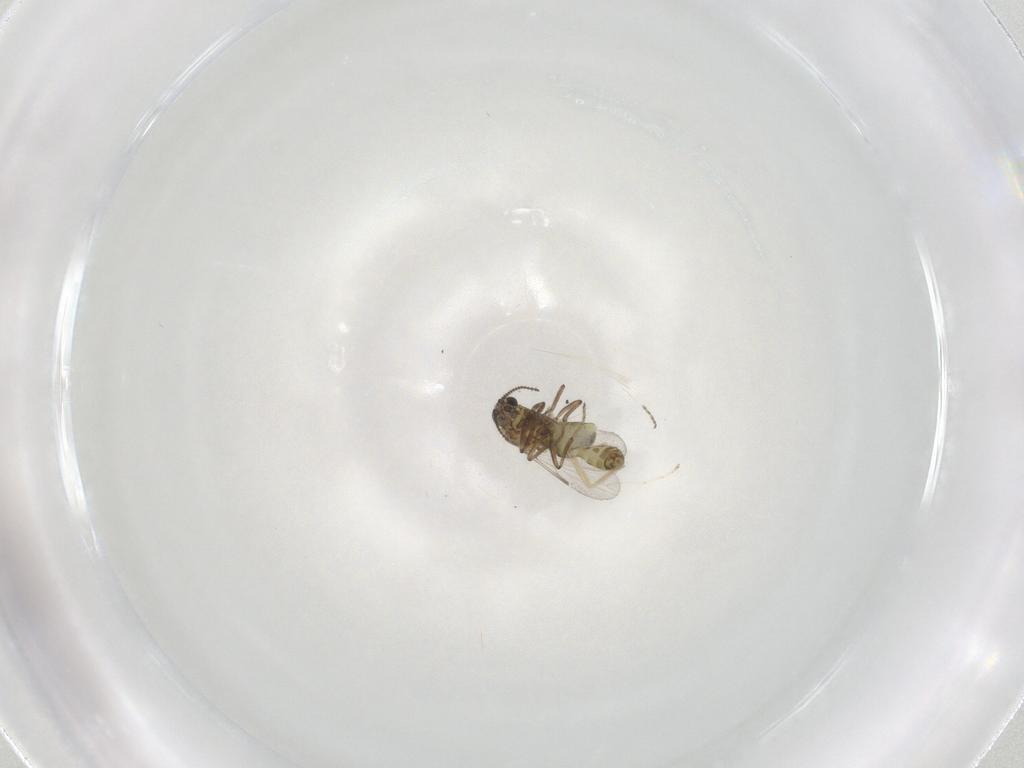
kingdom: Animalia
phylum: Arthropoda
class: Insecta
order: Diptera
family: Ceratopogonidae
